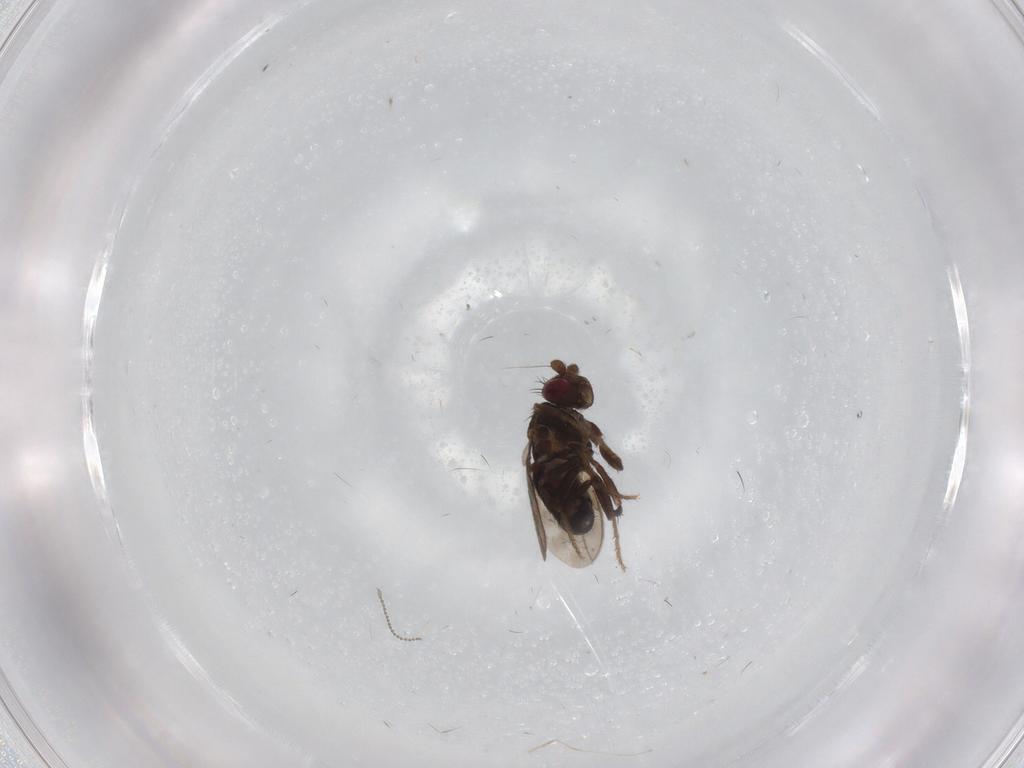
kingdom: Animalia
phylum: Arthropoda
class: Insecta
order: Diptera
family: Sphaeroceridae
